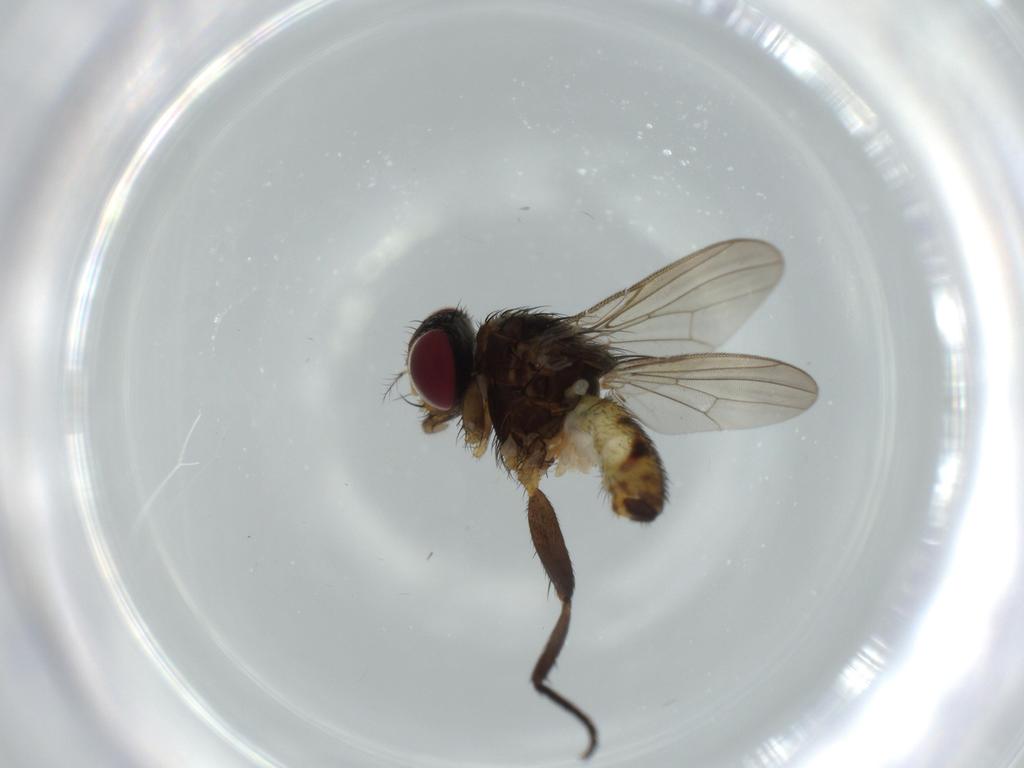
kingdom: Animalia
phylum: Arthropoda
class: Insecta
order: Diptera
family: Anthomyiidae
